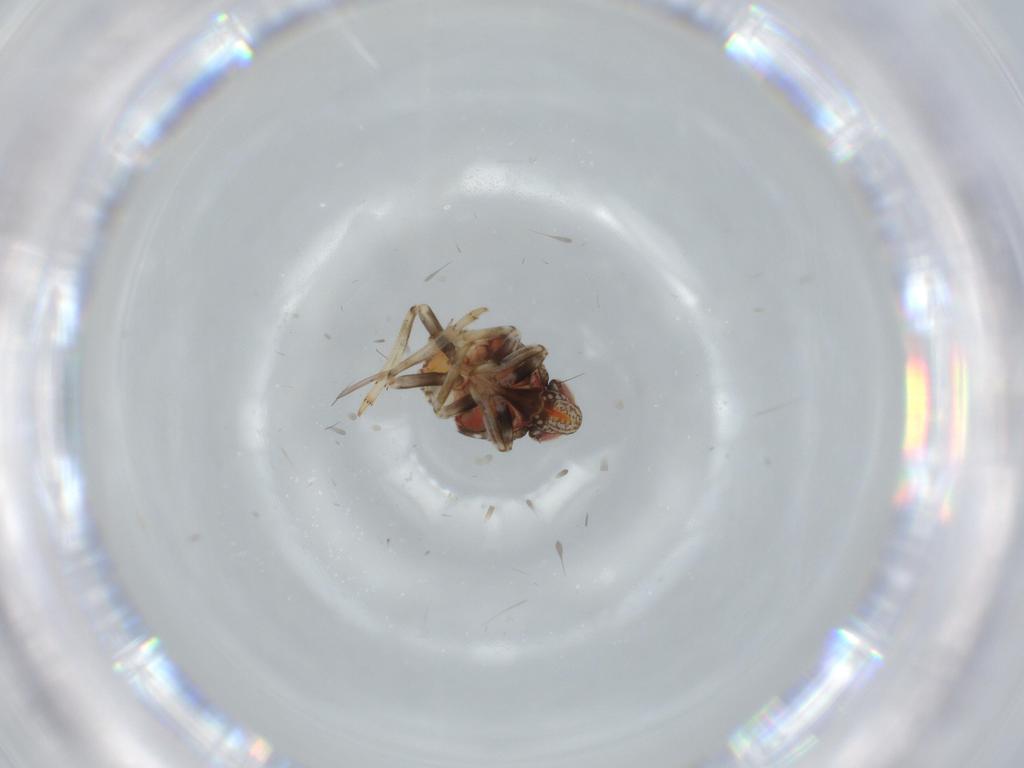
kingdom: Animalia
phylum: Arthropoda
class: Insecta
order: Hemiptera
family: Issidae
